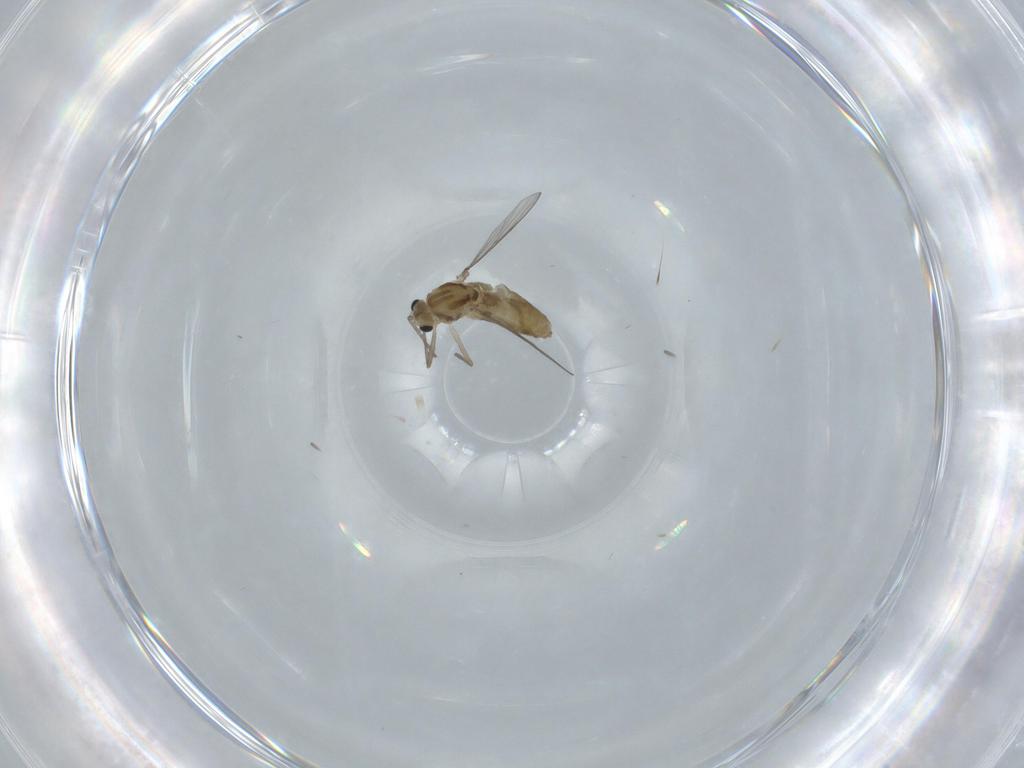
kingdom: Animalia
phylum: Arthropoda
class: Insecta
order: Diptera
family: Chironomidae
